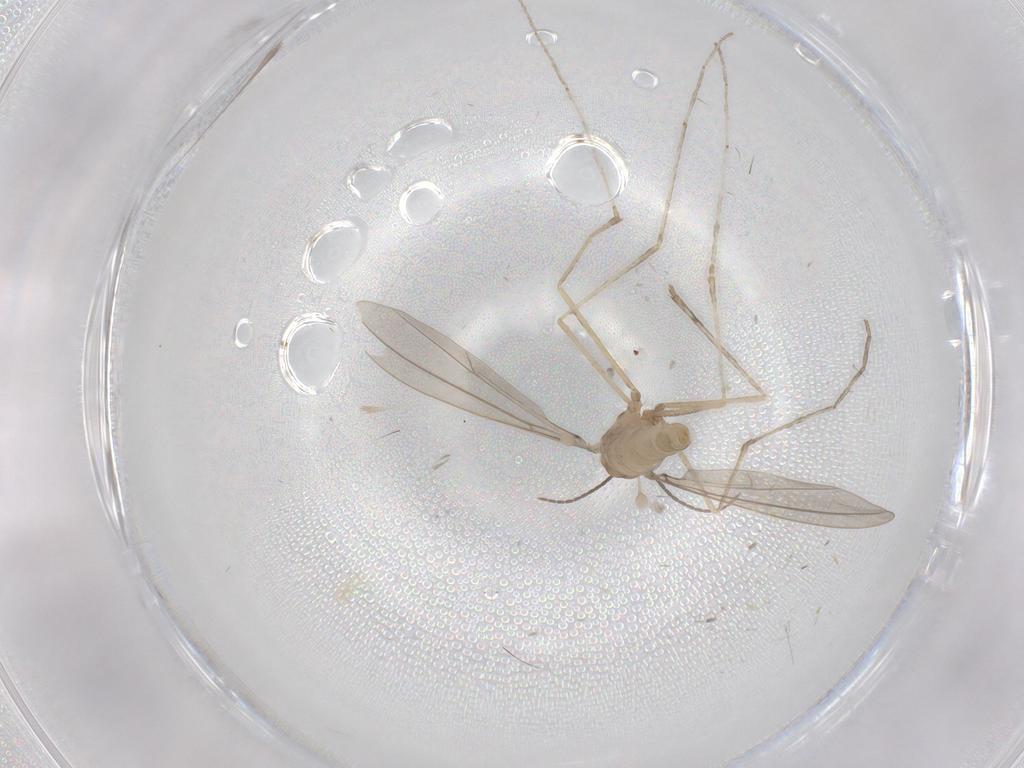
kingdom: Animalia
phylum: Arthropoda
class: Insecta
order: Diptera
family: Cecidomyiidae
